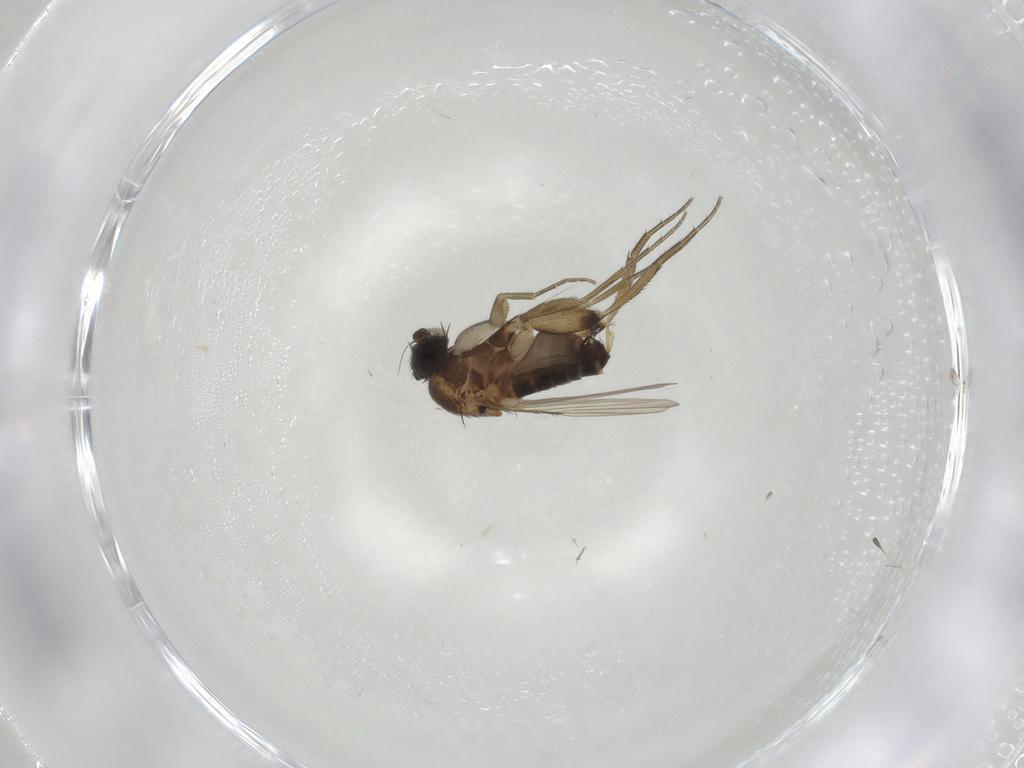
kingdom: Animalia
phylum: Arthropoda
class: Insecta
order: Diptera
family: Phoridae
